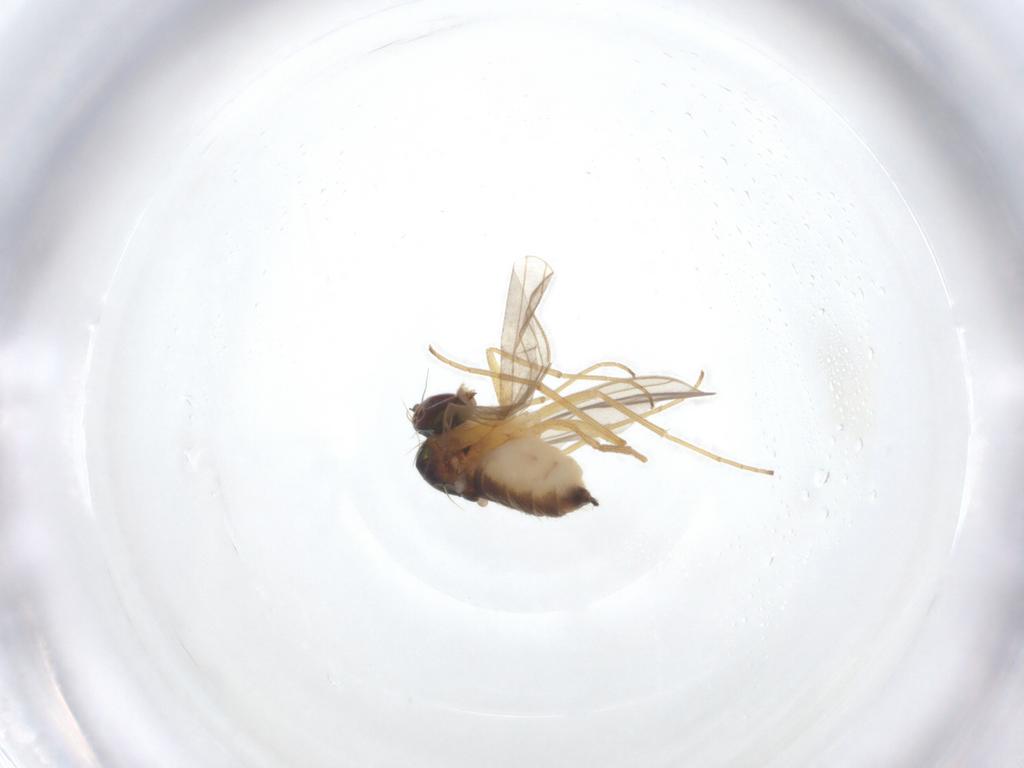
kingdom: Animalia
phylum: Arthropoda
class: Insecta
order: Diptera
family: Dolichopodidae
